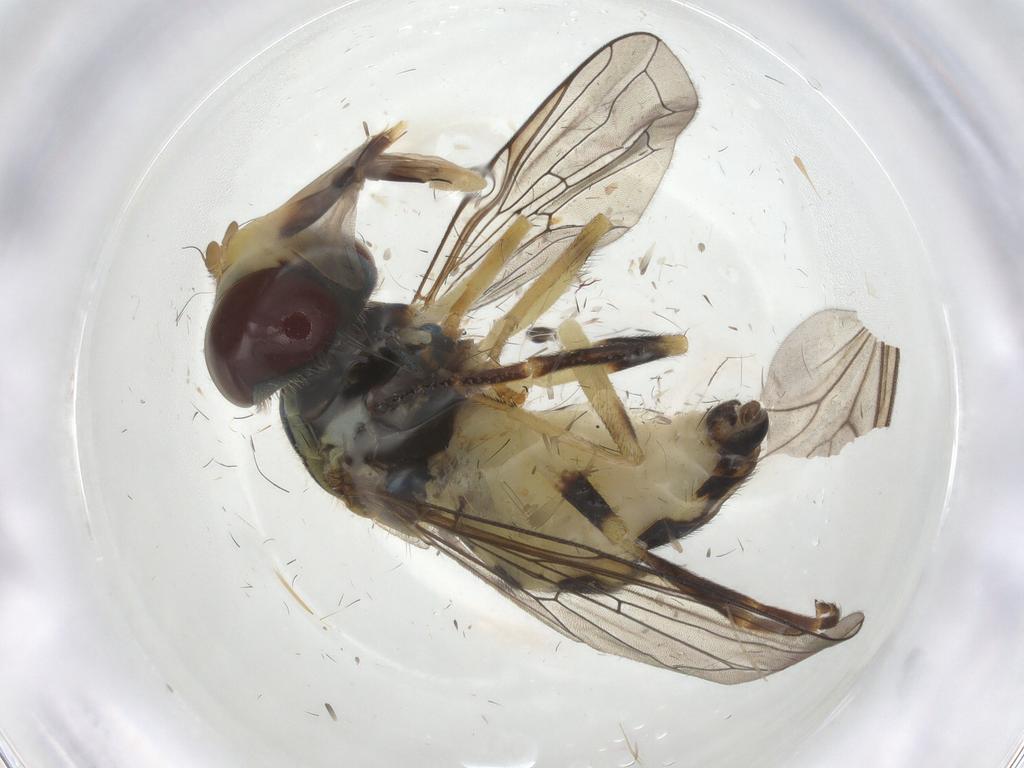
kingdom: Animalia
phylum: Arthropoda
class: Insecta
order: Diptera
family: Syrphidae
